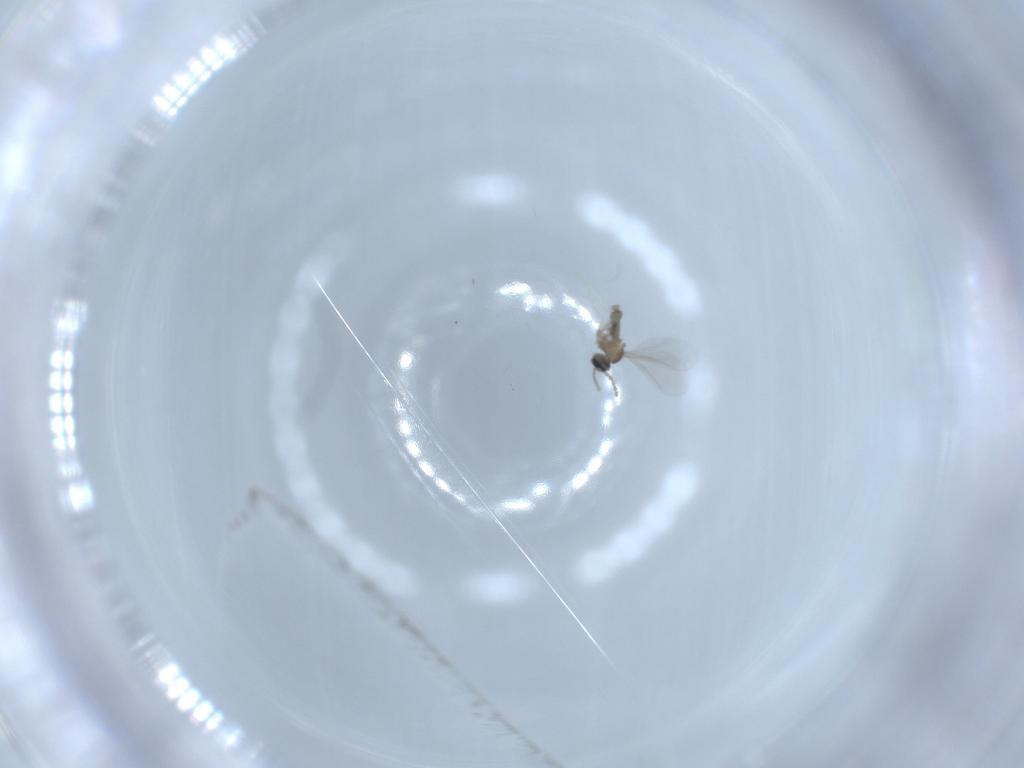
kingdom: Animalia
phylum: Arthropoda
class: Insecta
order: Diptera
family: Cecidomyiidae
